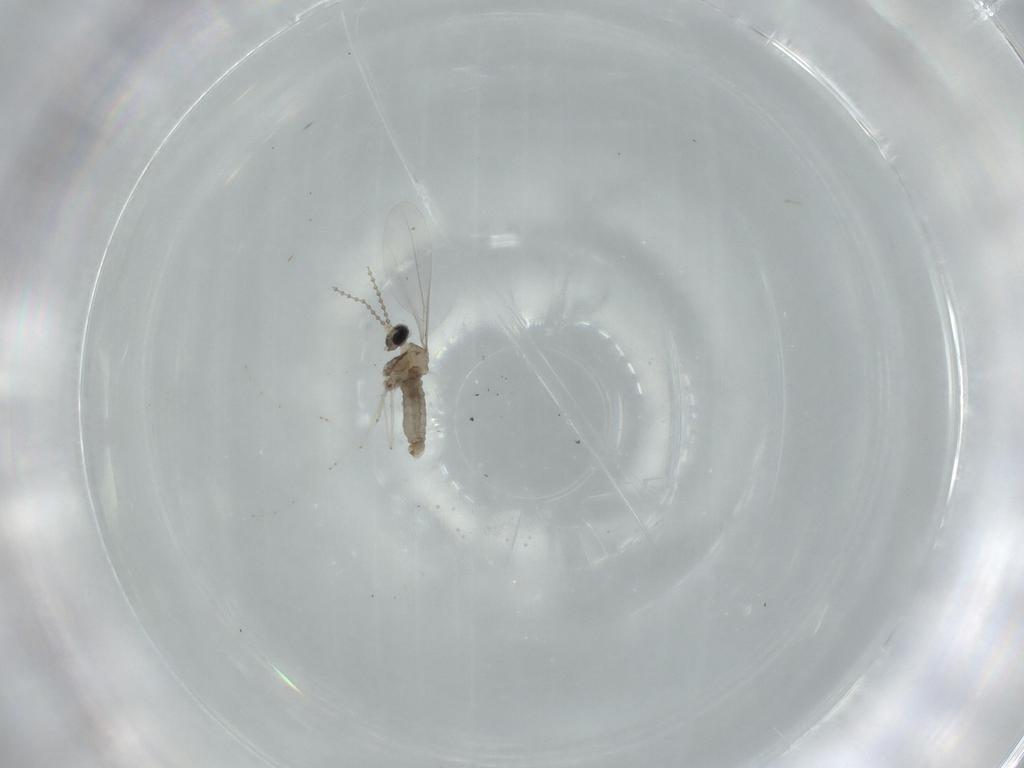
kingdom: Animalia
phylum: Arthropoda
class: Insecta
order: Diptera
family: Cecidomyiidae
